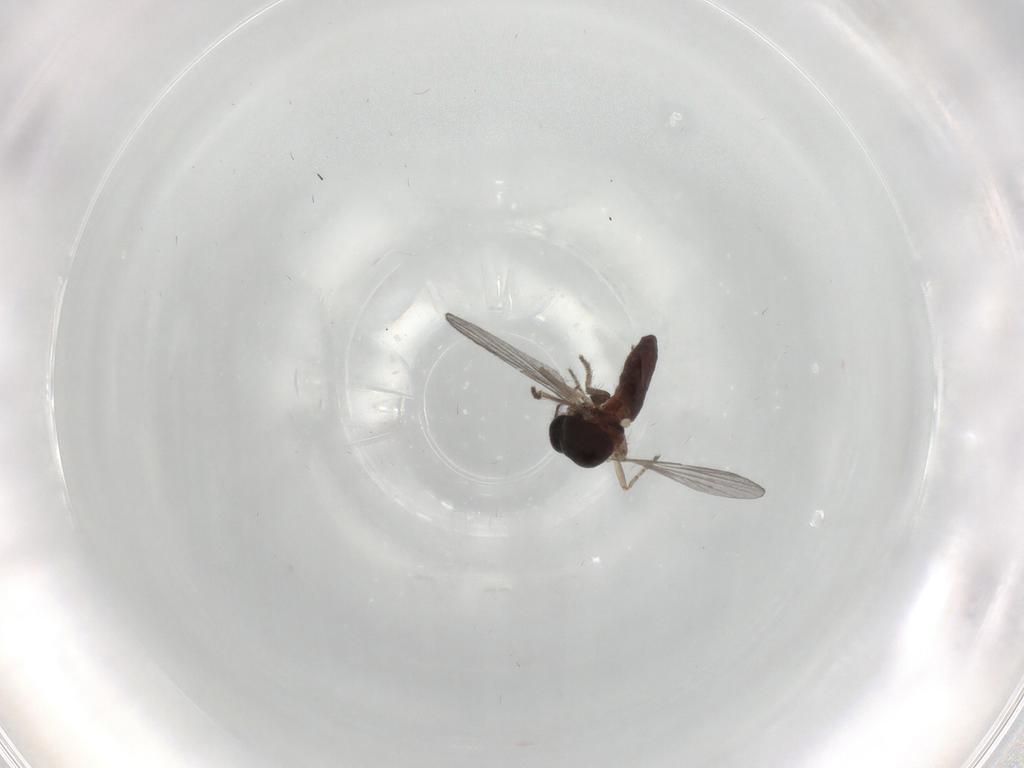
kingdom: Animalia
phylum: Arthropoda
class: Insecta
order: Diptera
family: Ceratopogonidae
